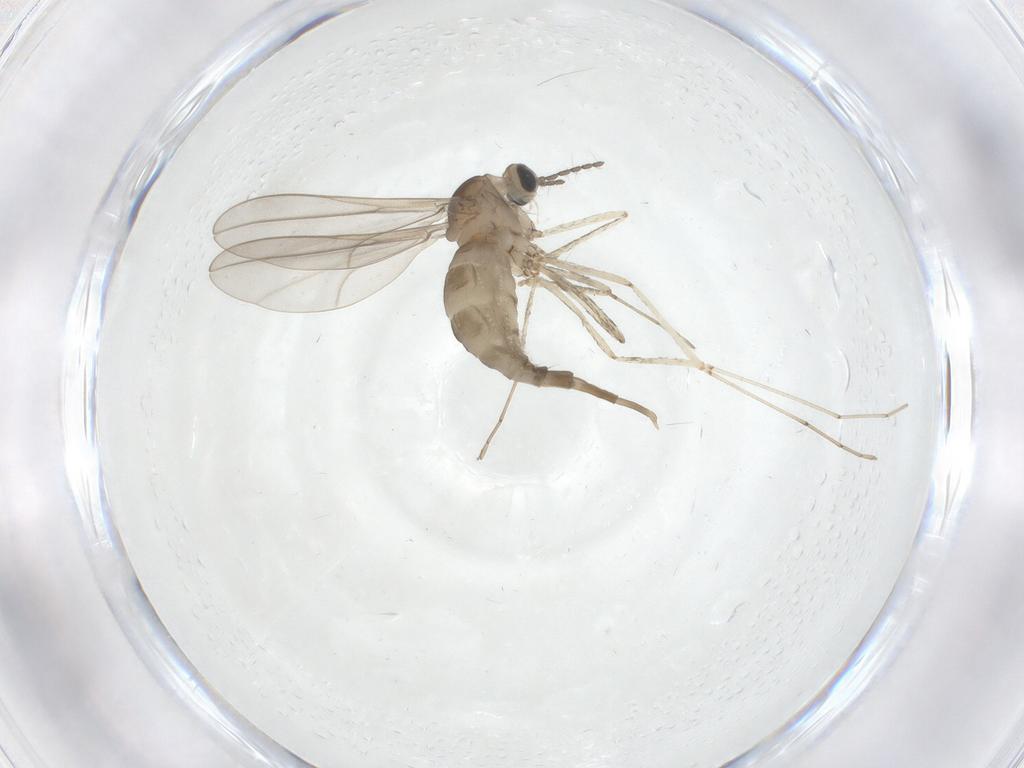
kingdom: Animalia
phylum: Arthropoda
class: Insecta
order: Diptera
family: Cecidomyiidae
